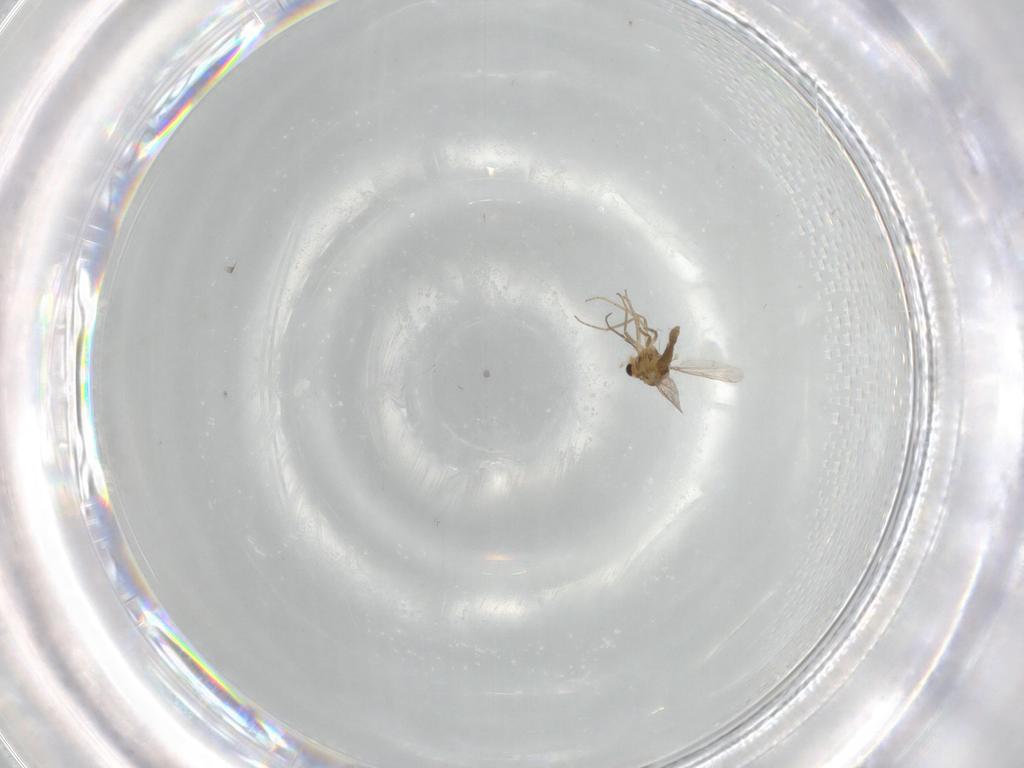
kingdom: Animalia
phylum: Arthropoda
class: Insecta
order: Diptera
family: Chironomidae
